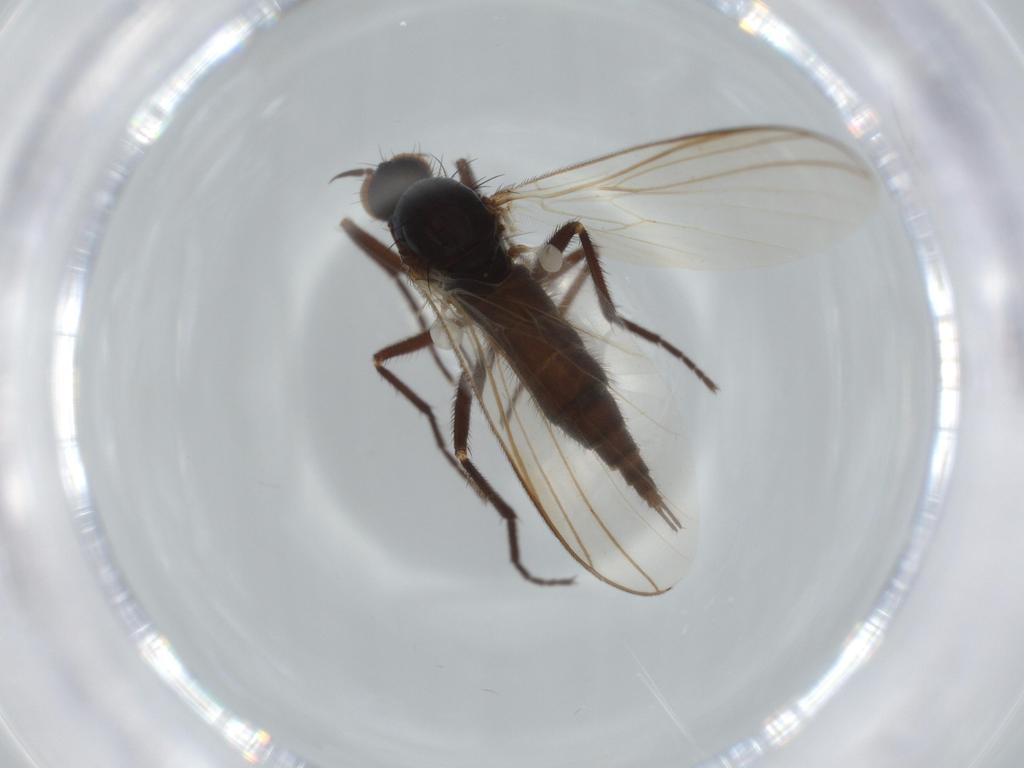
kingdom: Animalia
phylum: Arthropoda
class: Insecta
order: Diptera
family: Empididae
